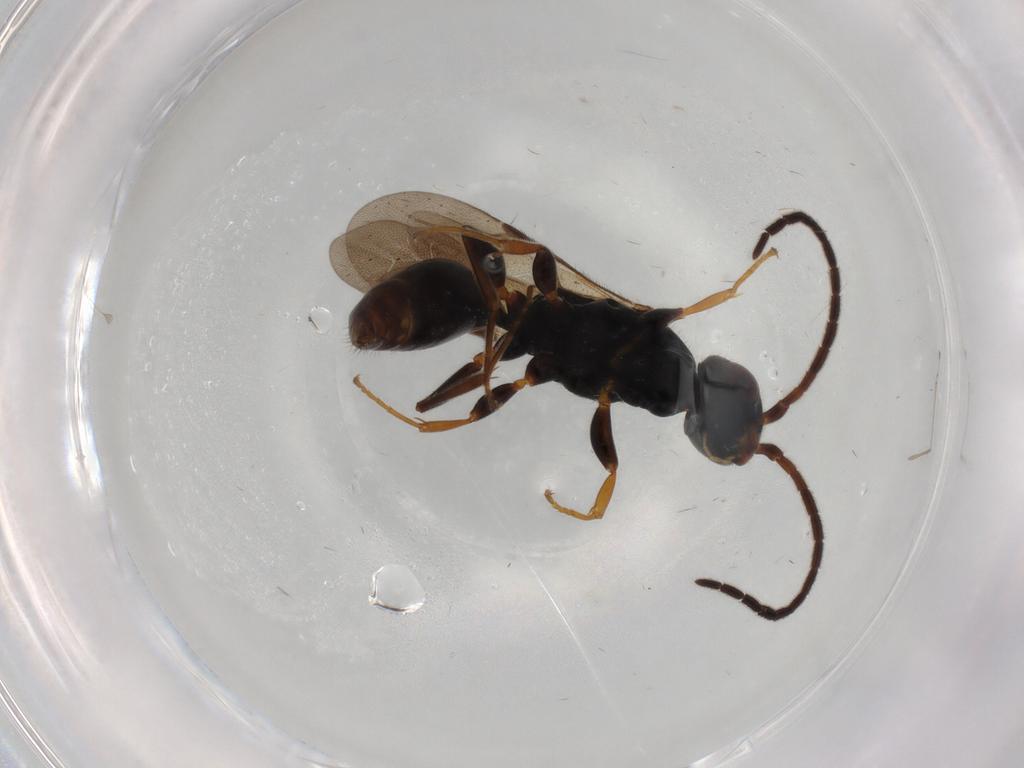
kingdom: Animalia
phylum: Arthropoda
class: Insecta
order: Hymenoptera
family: Bethylidae
